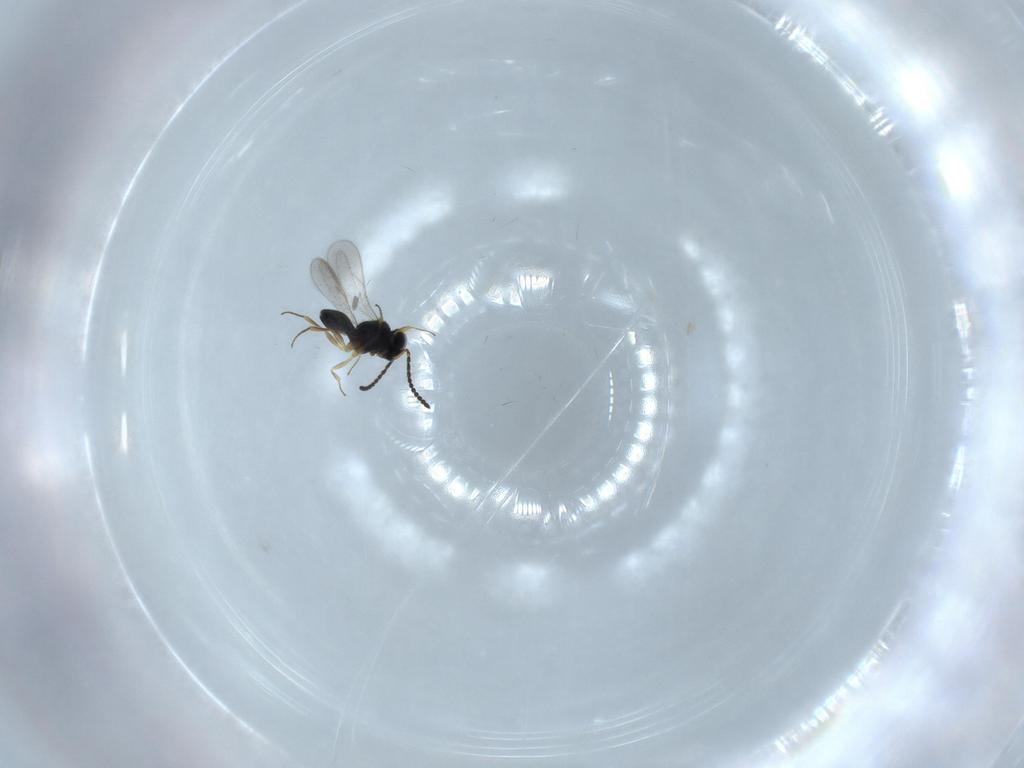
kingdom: Animalia
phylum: Arthropoda
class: Insecta
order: Hymenoptera
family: Scelionidae
